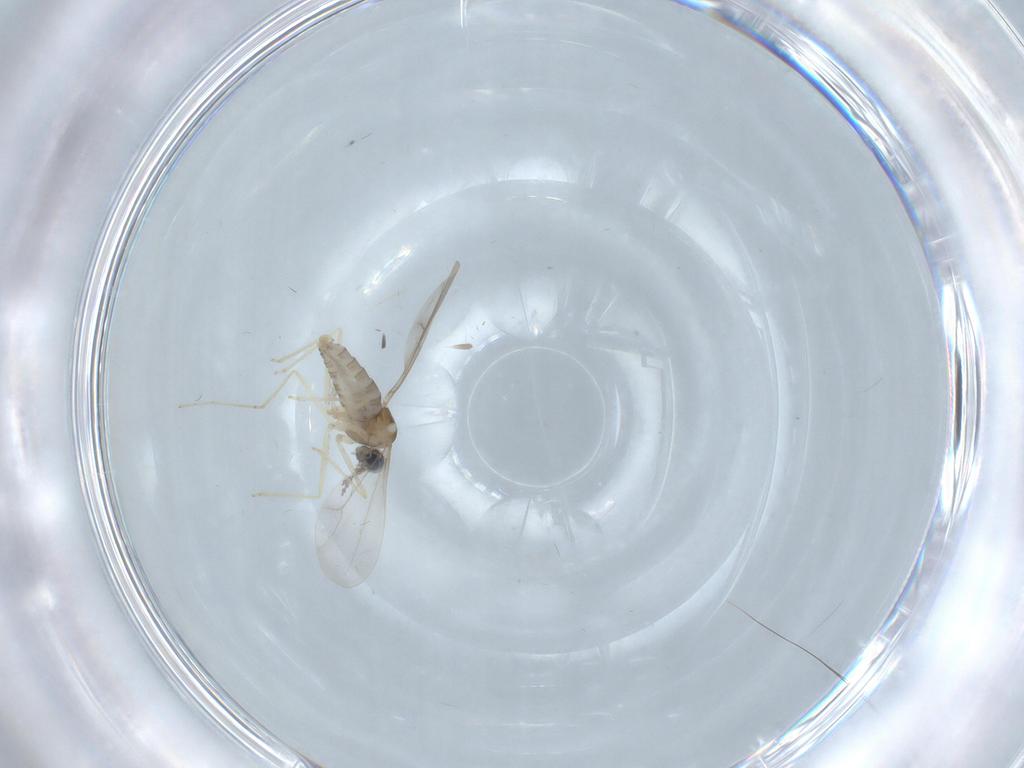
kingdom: Animalia
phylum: Arthropoda
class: Insecta
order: Diptera
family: Cecidomyiidae
